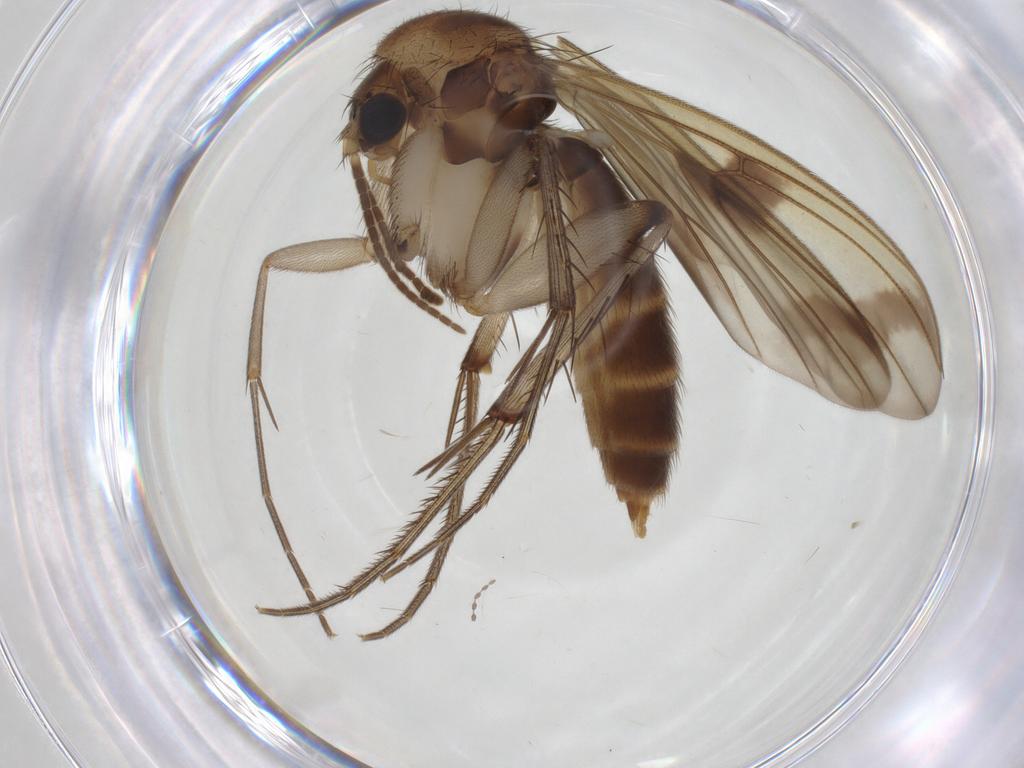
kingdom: Animalia
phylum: Arthropoda
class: Insecta
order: Diptera
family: Mycetophilidae
